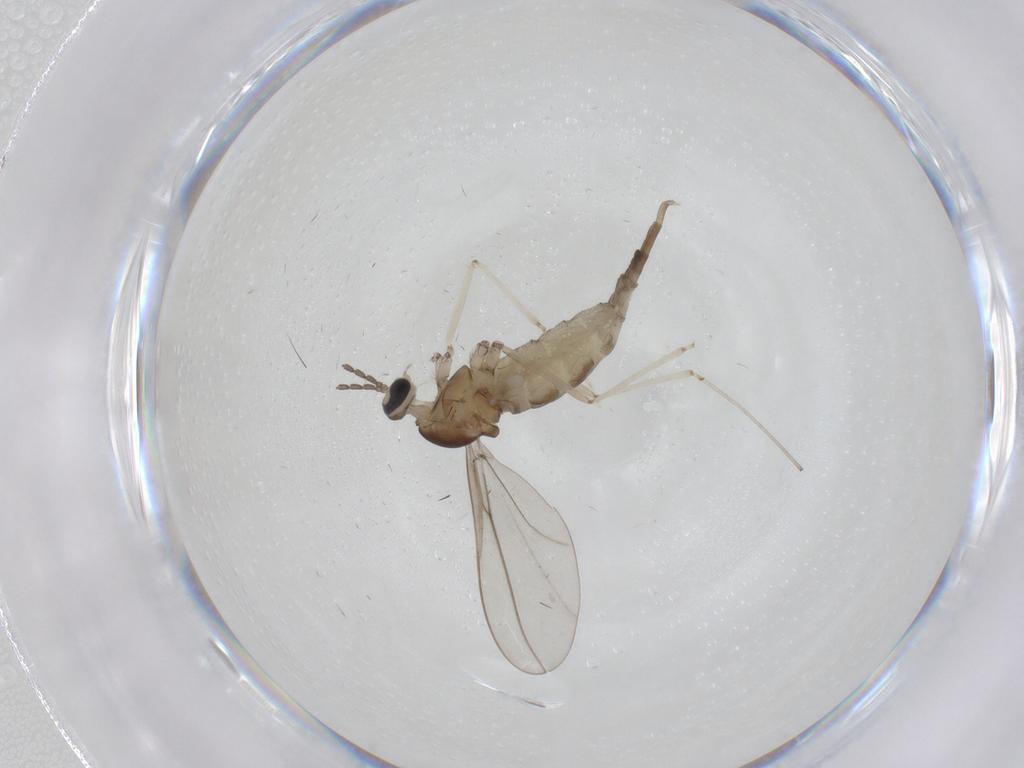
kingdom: Animalia
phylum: Arthropoda
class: Insecta
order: Diptera
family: Cecidomyiidae
